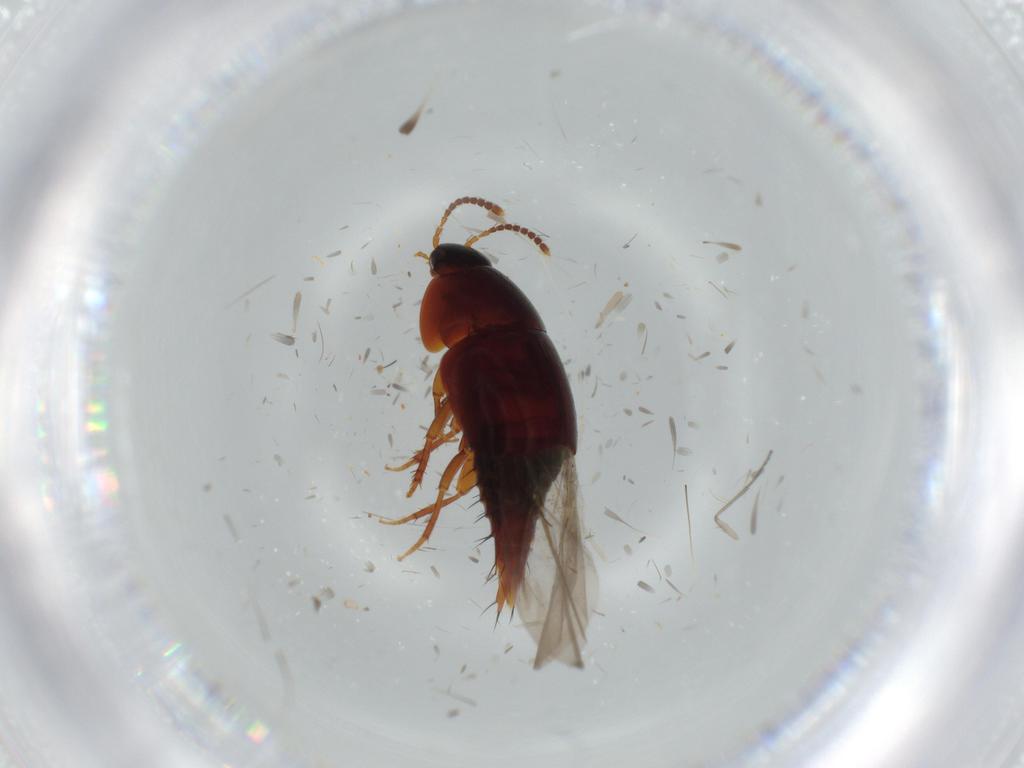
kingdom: Animalia
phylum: Arthropoda
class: Insecta
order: Coleoptera
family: Staphylinidae
